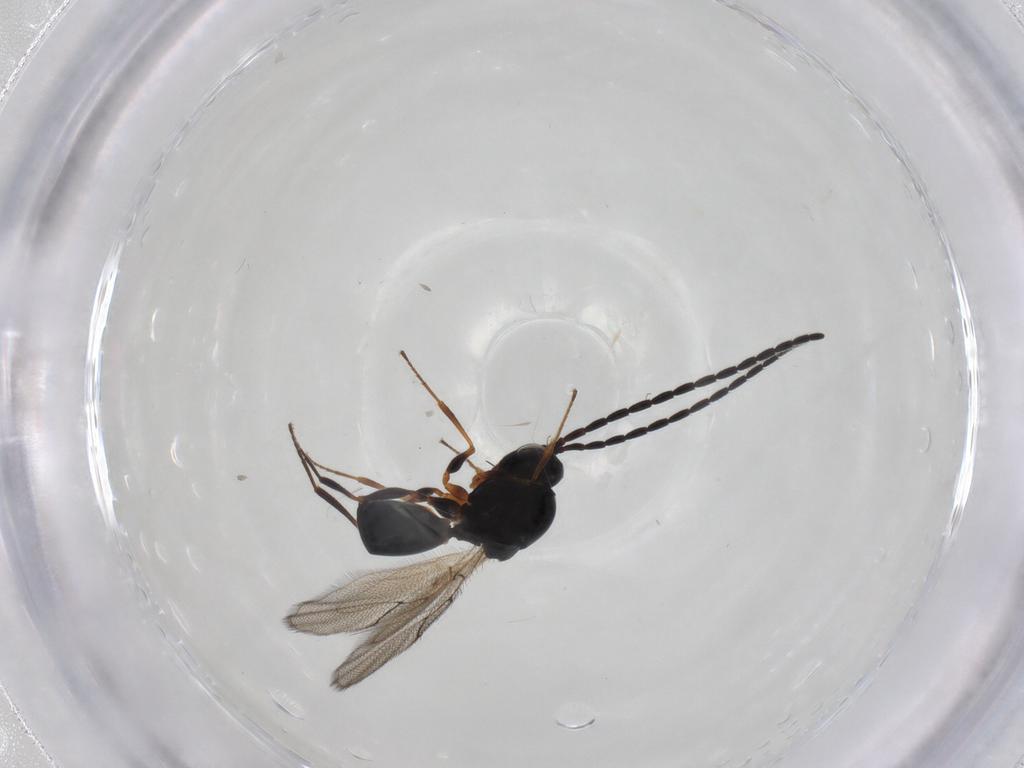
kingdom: Animalia
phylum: Arthropoda
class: Insecta
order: Hymenoptera
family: Figitidae
